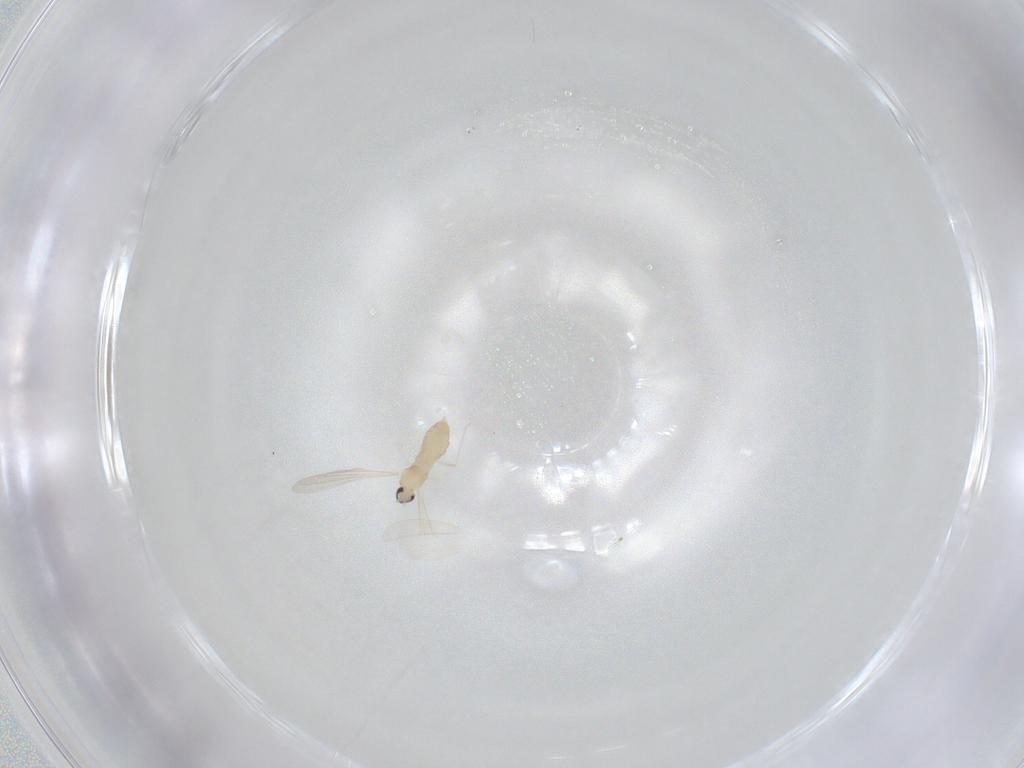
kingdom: Animalia
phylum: Arthropoda
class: Insecta
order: Diptera
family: Cecidomyiidae
